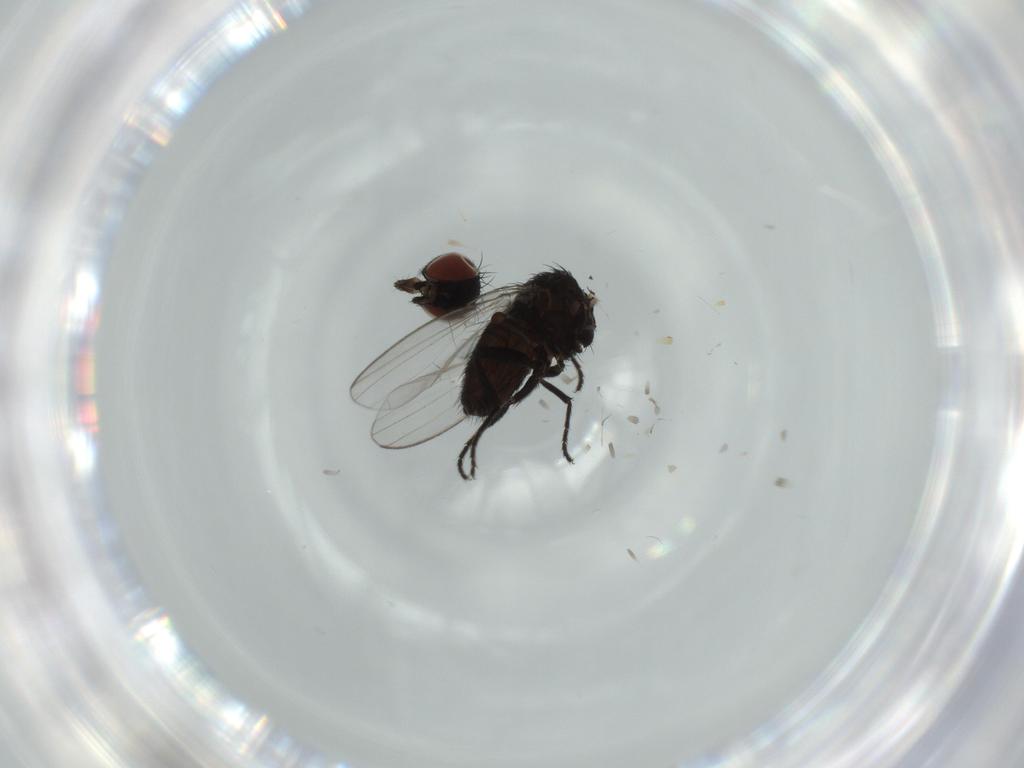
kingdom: Animalia
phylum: Arthropoda
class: Insecta
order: Diptera
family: Milichiidae
